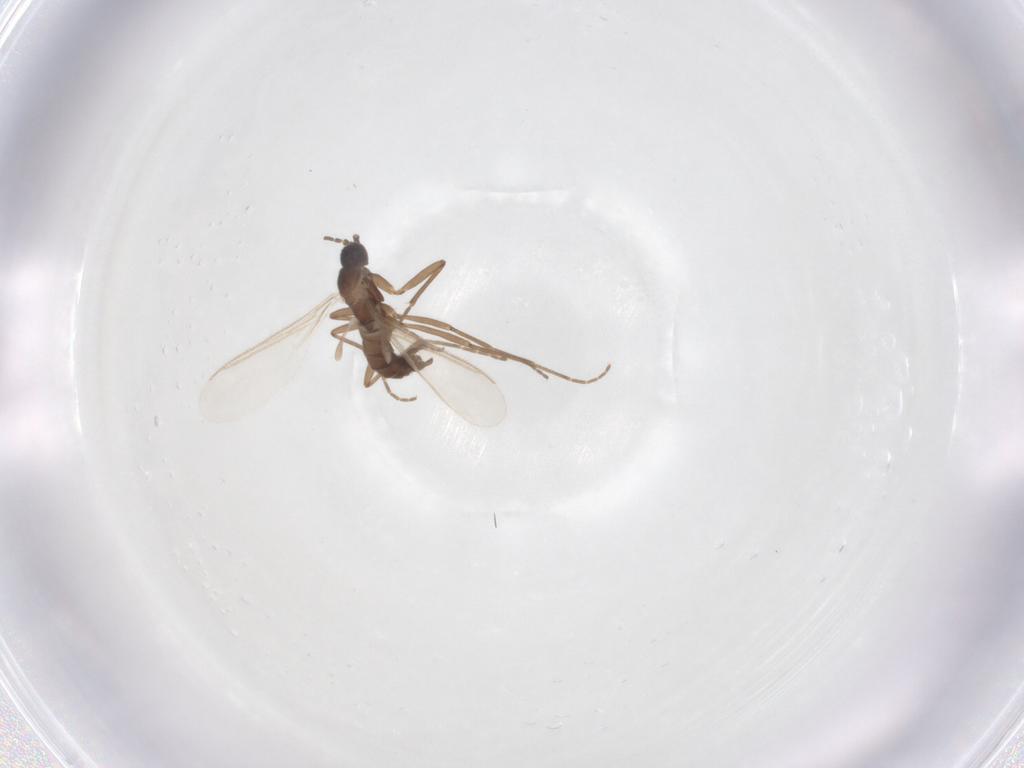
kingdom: Animalia
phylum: Arthropoda
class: Insecta
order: Diptera
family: Sciaridae
